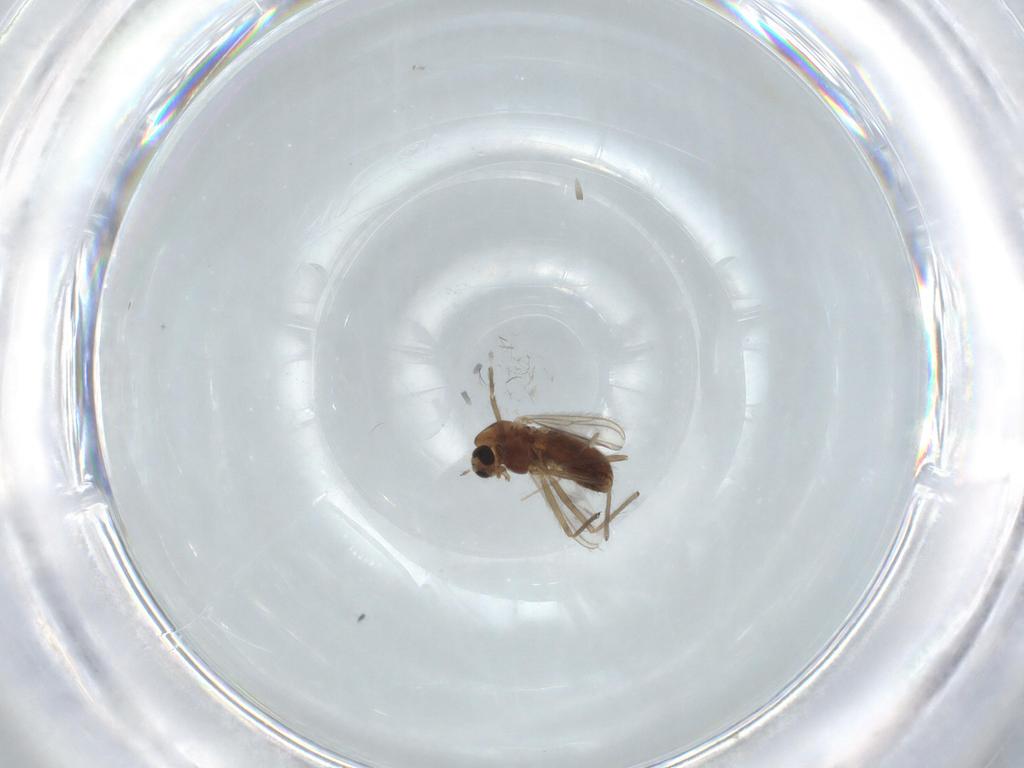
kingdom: Animalia
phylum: Arthropoda
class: Insecta
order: Diptera
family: Chironomidae
